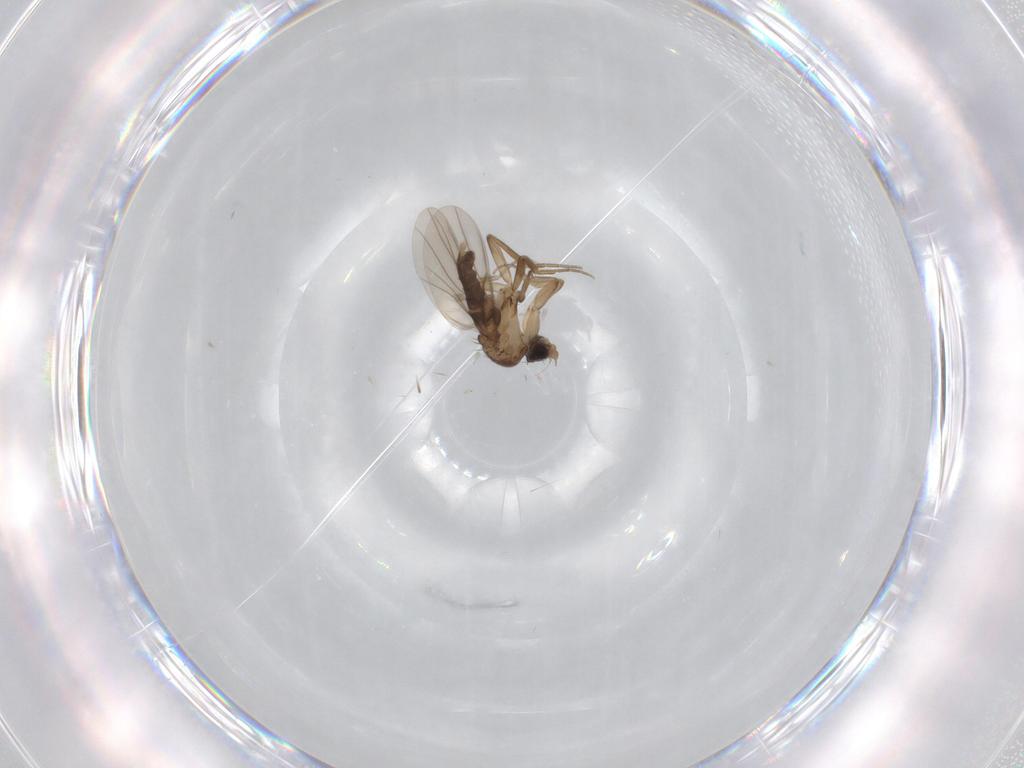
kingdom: Animalia
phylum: Arthropoda
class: Insecta
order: Diptera
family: Phoridae
